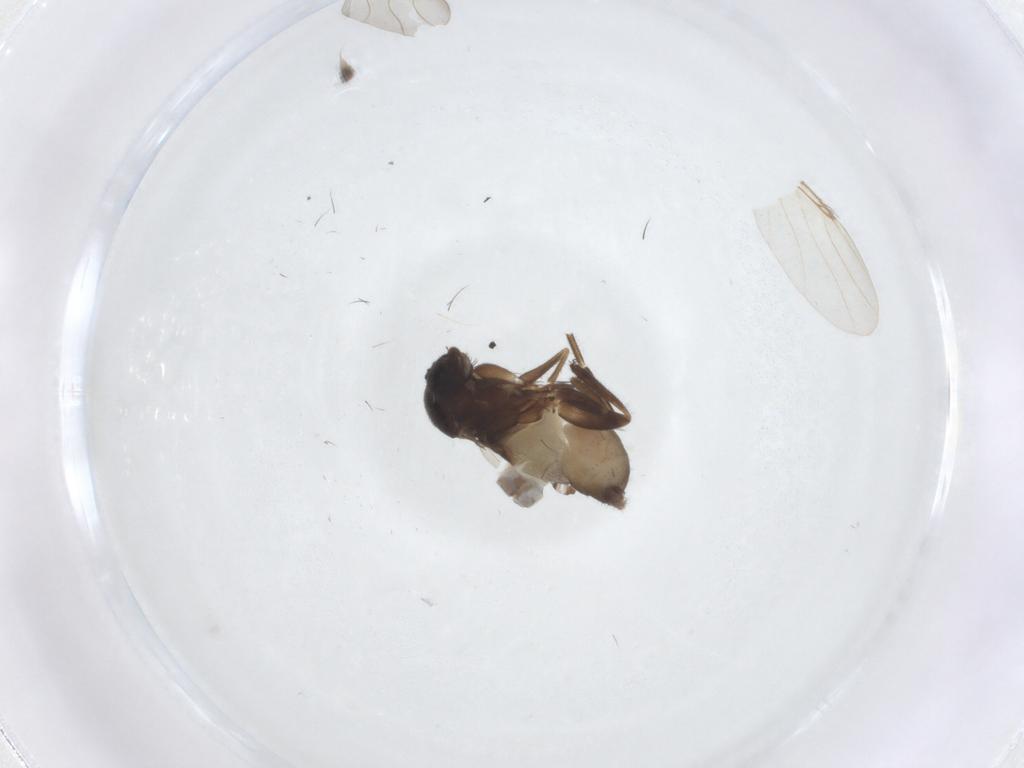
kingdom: Animalia
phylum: Arthropoda
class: Insecta
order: Diptera
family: Phoridae
